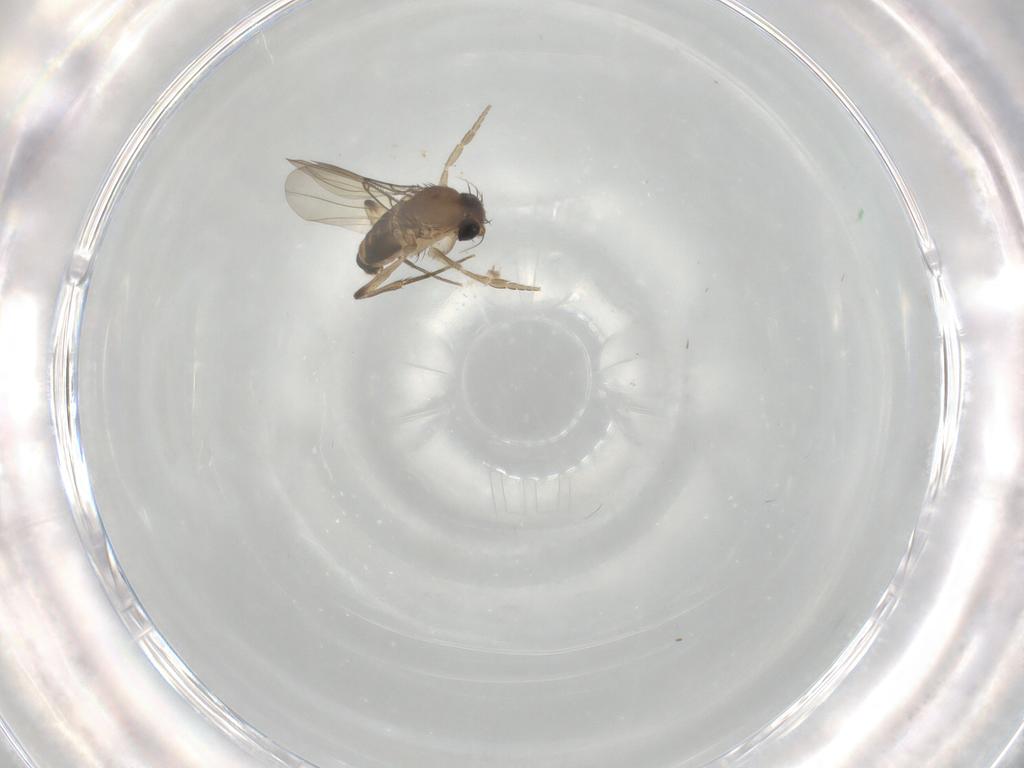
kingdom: Animalia
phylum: Arthropoda
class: Insecta
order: Diptera
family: Phoridae
